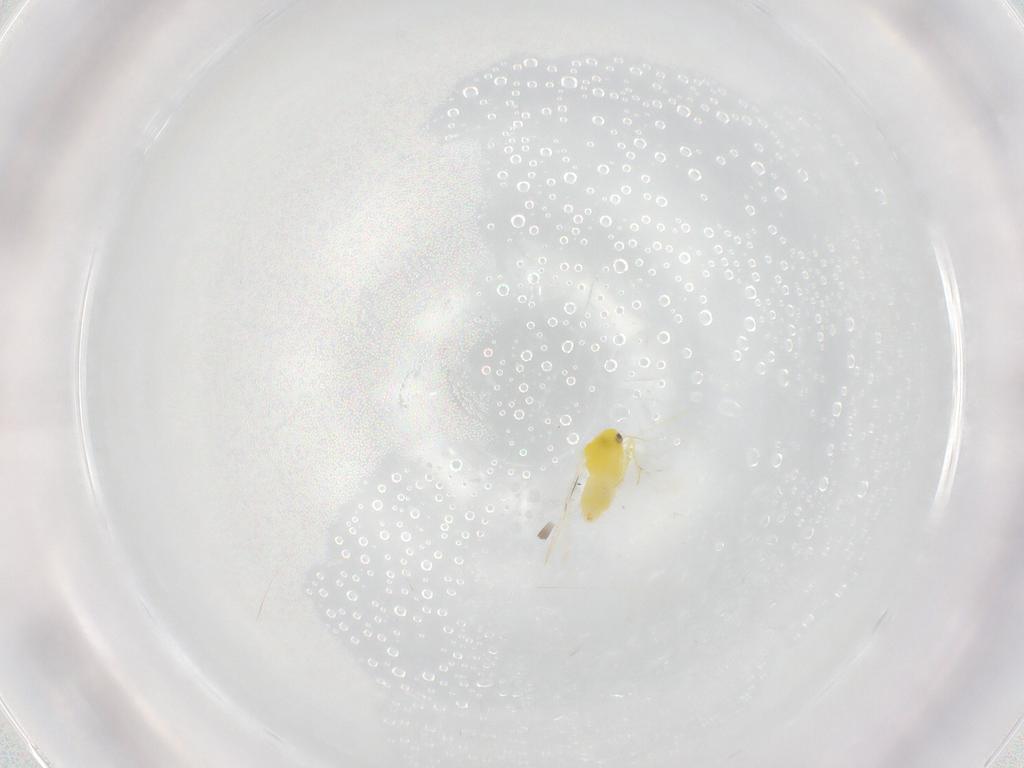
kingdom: Animalia
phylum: Arthropoda
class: Insecta
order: Hemiptera
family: Aleyrodidae
